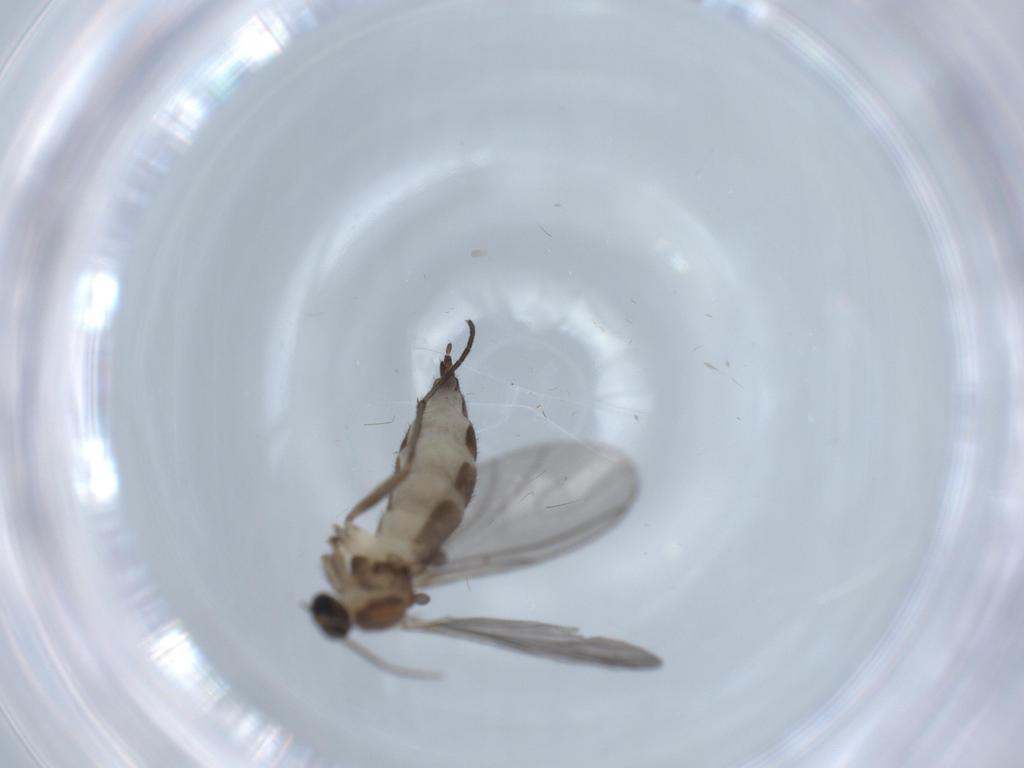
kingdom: Animalia
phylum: Arthropoda
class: Insecta
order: Diptera
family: Sciaridae
